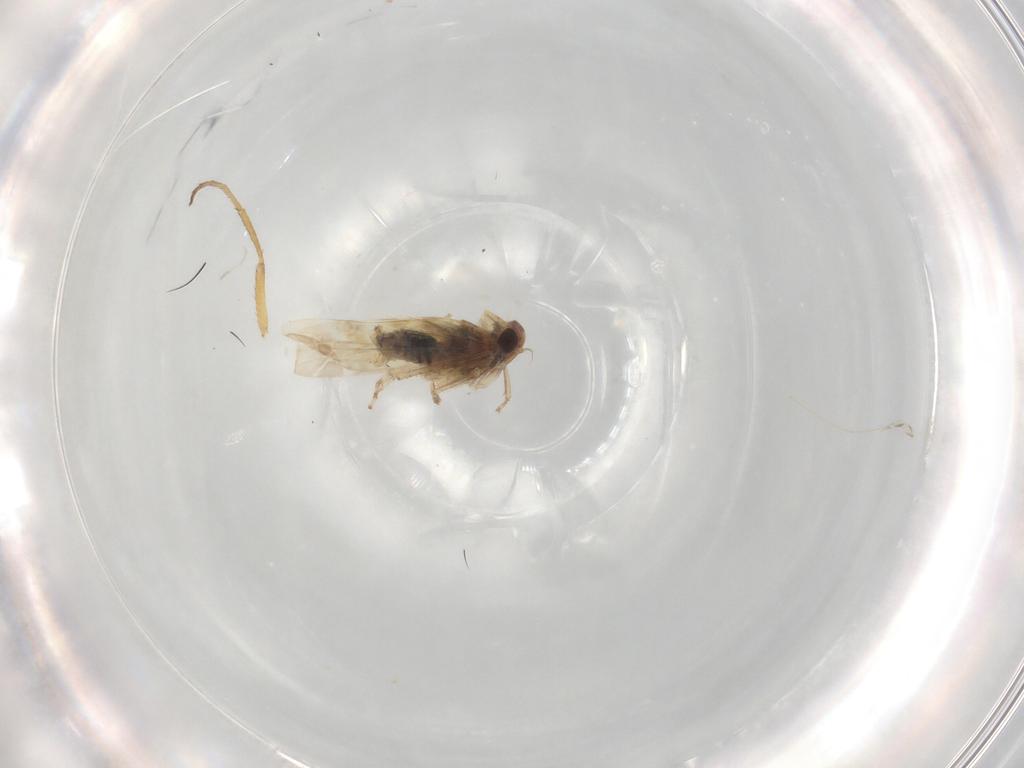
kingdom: Animalia
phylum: Arthropoda
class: Insecta
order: Diptera
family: Ephydridae
